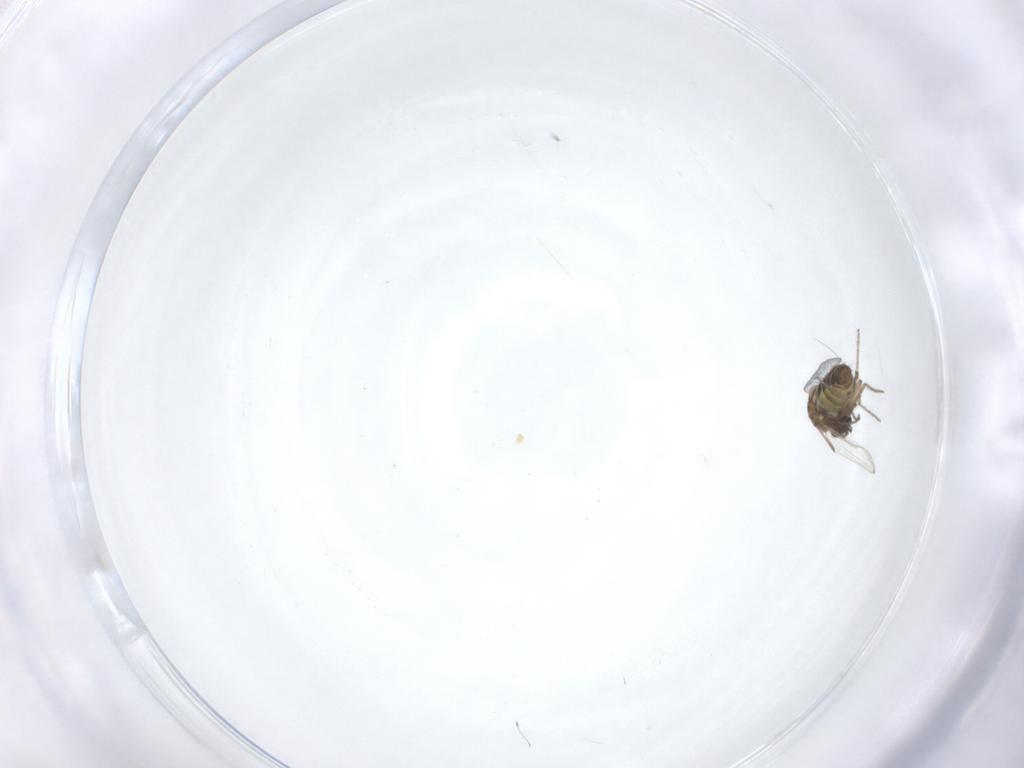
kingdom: Animalia
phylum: Arthropoda
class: Insecta
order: Diptera
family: Ceratopogonidae
